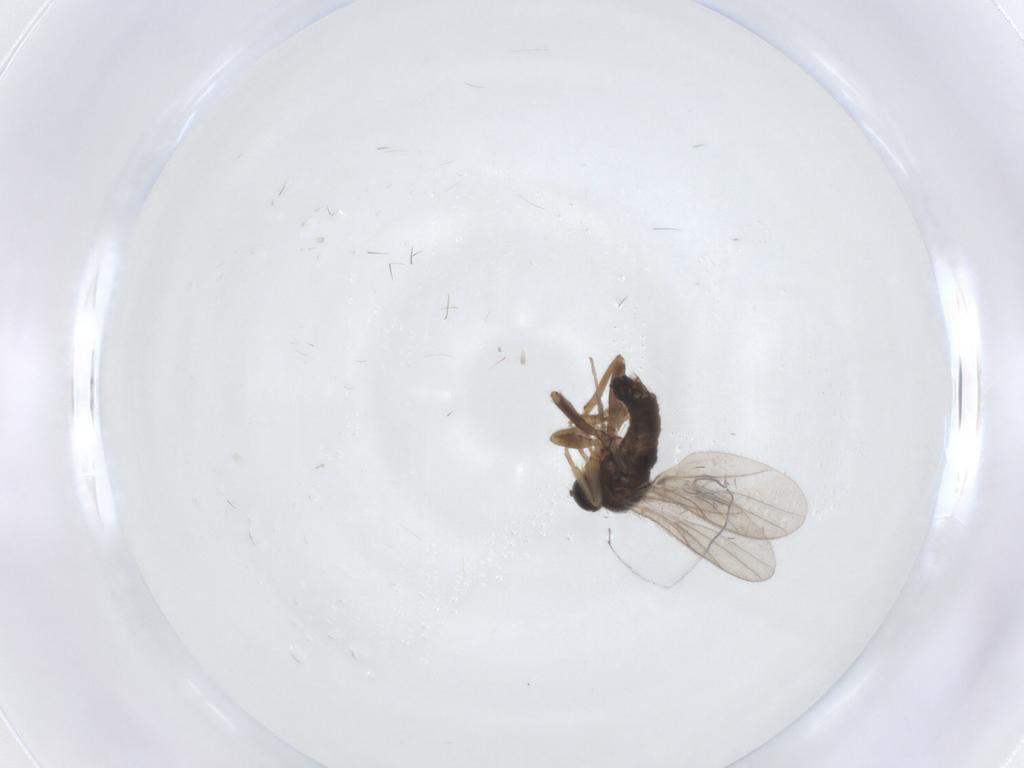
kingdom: Animalia
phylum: Arthropoda
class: Insecta
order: Diptera
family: Hybotidae
